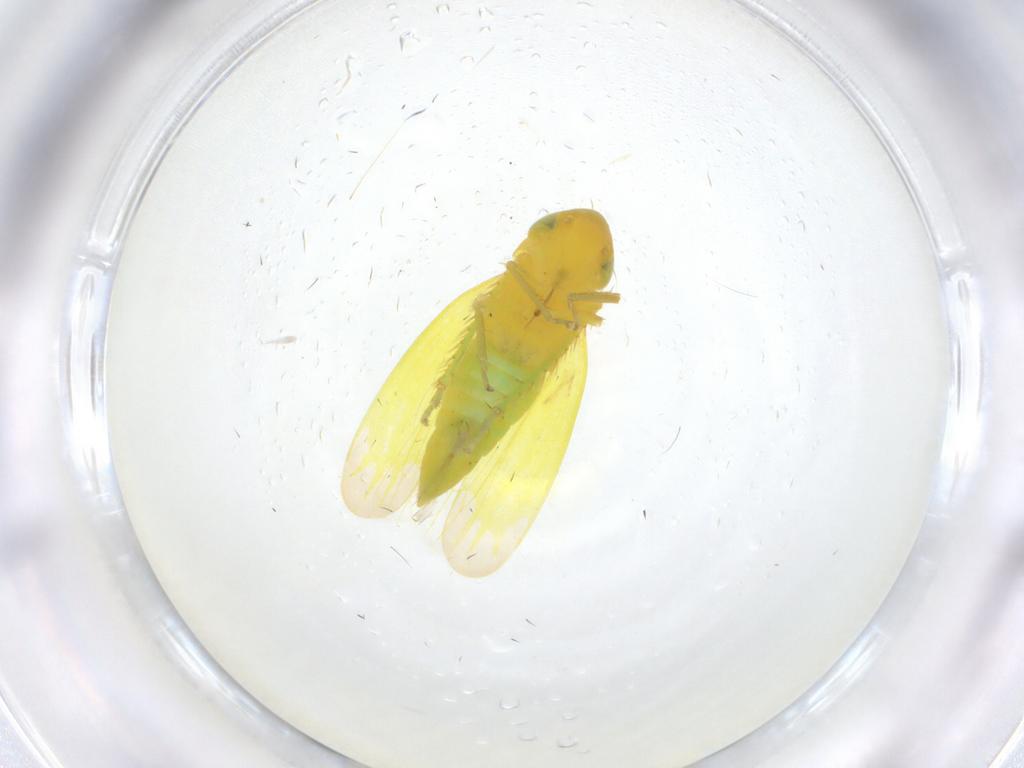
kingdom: Animalia
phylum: Arthropoda
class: Insecta
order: Hemiptera
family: Cicadellidae
